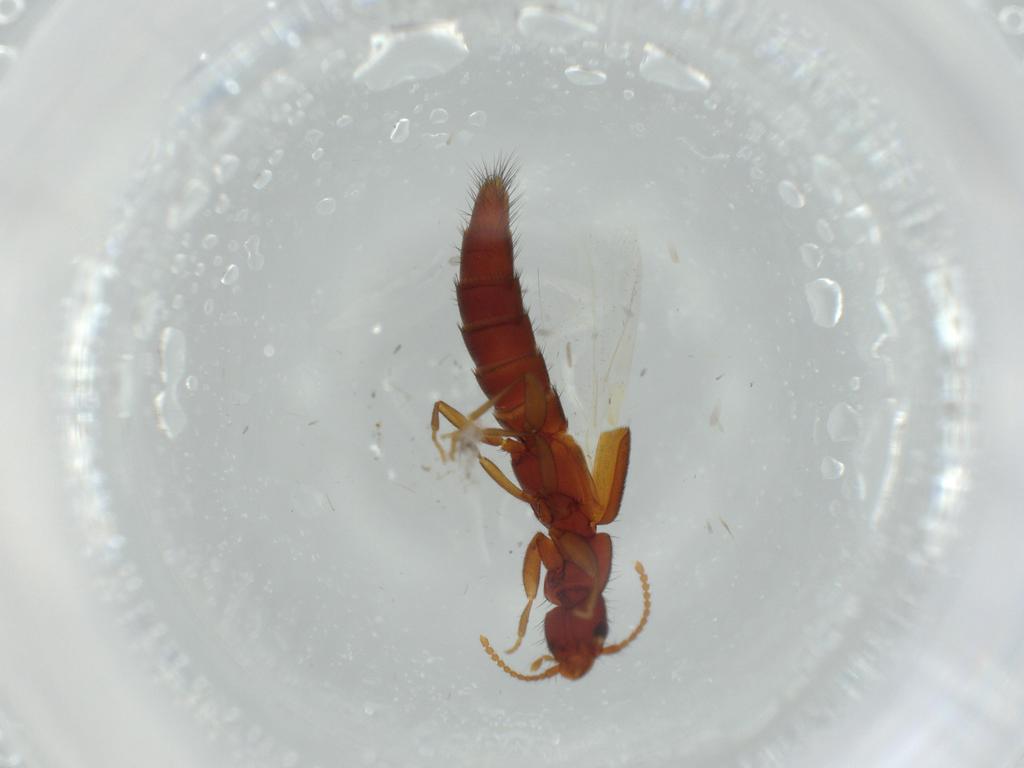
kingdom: Animalia
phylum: Arthropoda
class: Insecta
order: Coleoptera
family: Staphylinidae
